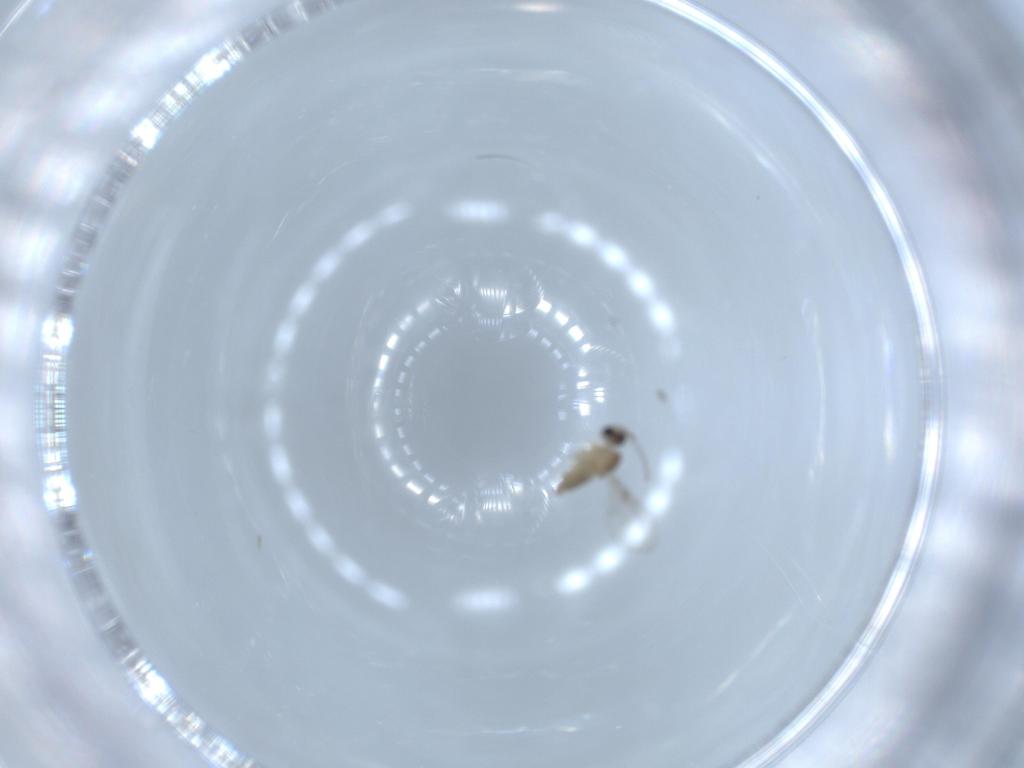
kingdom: Animalia
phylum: Arthropoda
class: Insecta
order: Diptera
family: Cecidomyiidae
